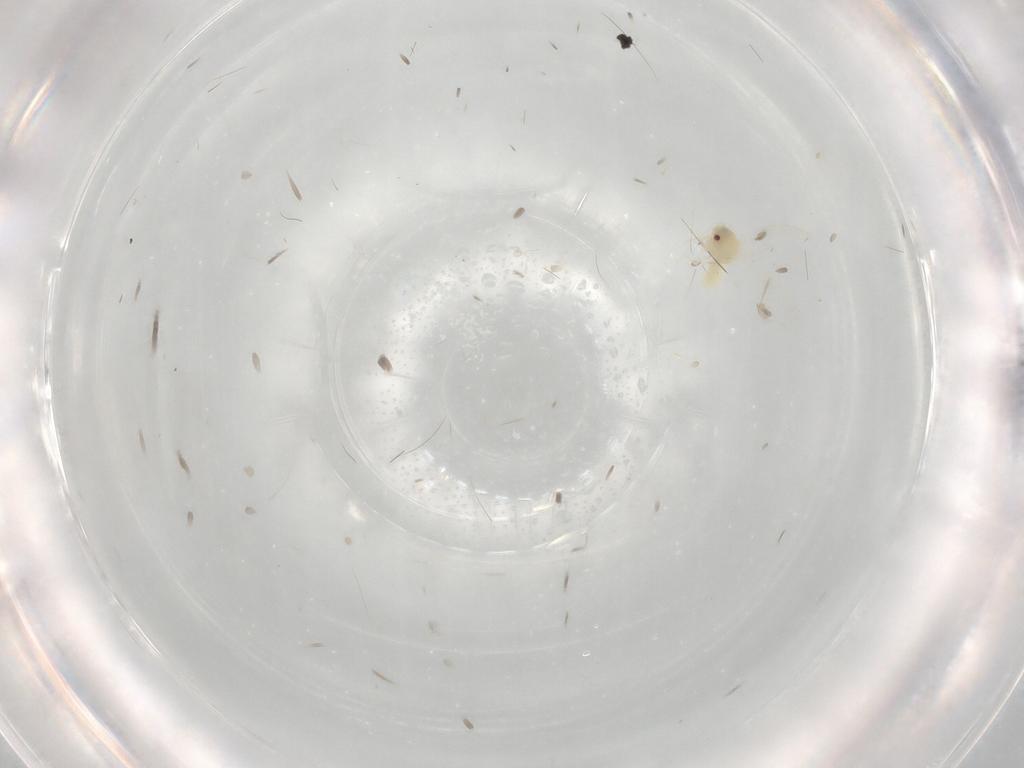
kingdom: Animalia
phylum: Arthropoda
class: Insecta
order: Hemiptera
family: Aleyrodidae
